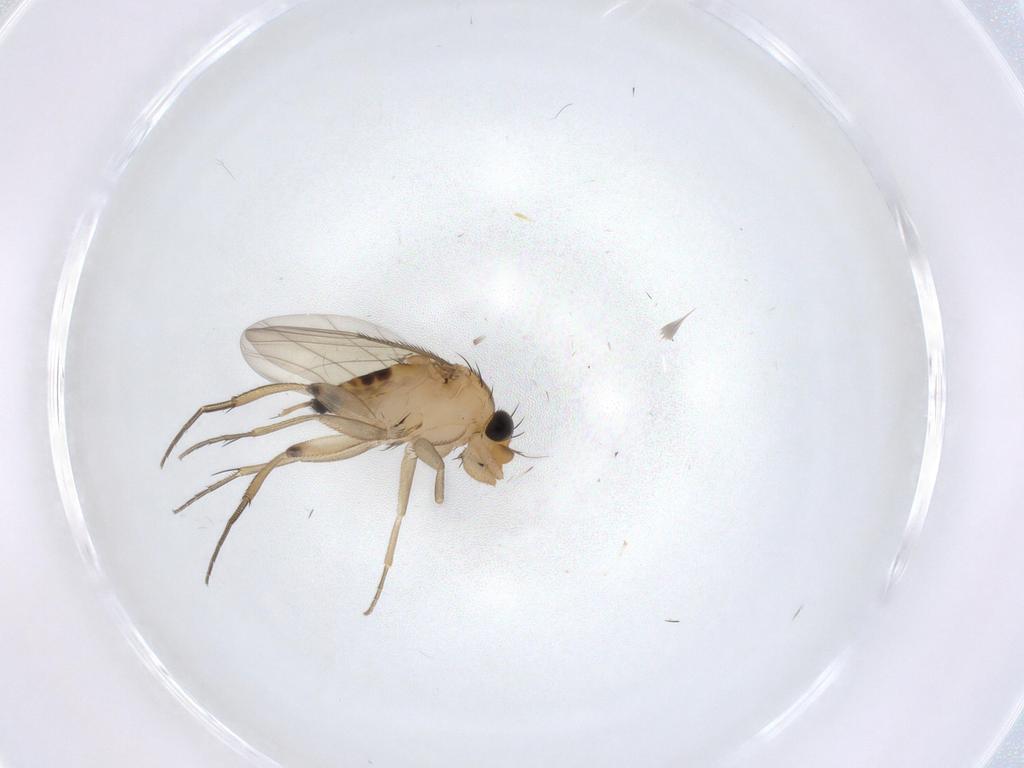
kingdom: Animalia
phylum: Arthropoda
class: Insecta
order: Diptera
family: Phoridae
